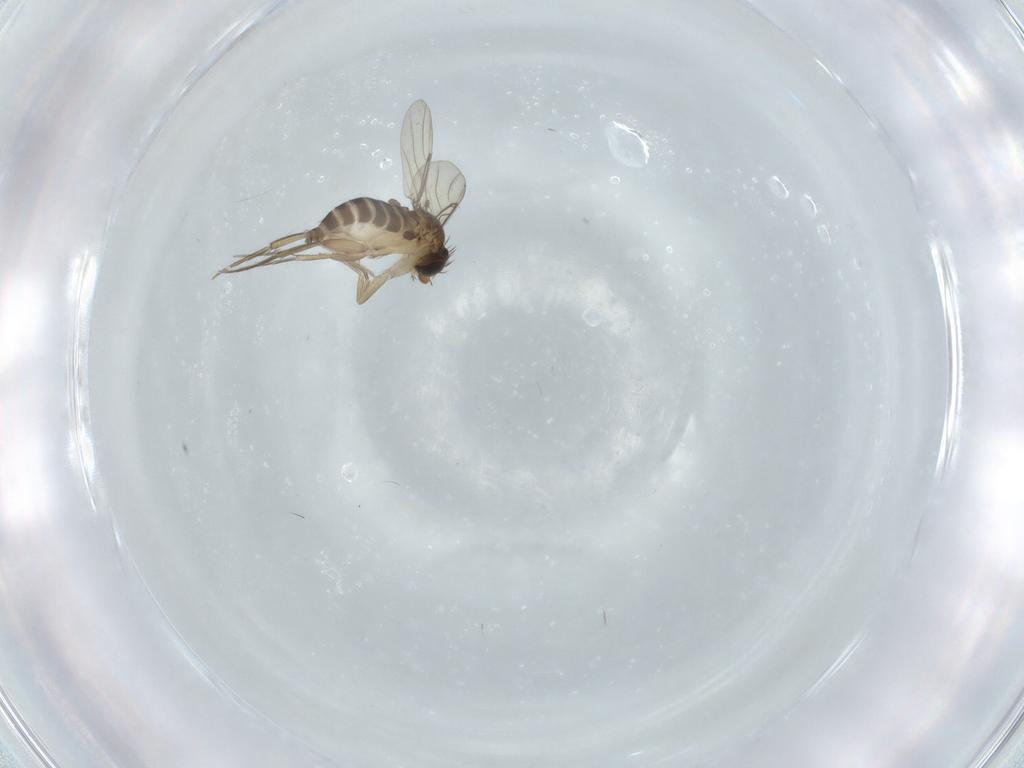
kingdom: Animalia
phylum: Arthropoda
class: Insecta
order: Diptera
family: Phoridae
